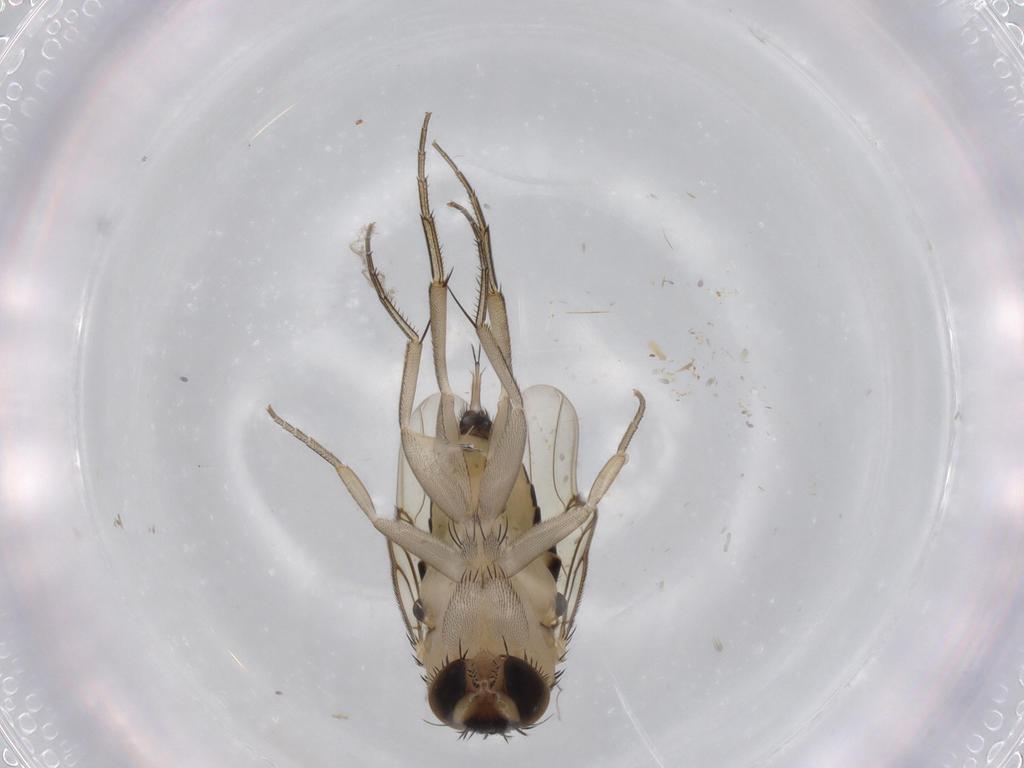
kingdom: Animalia
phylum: Arthropoda
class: Insecta
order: Diptera
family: Phoridae
